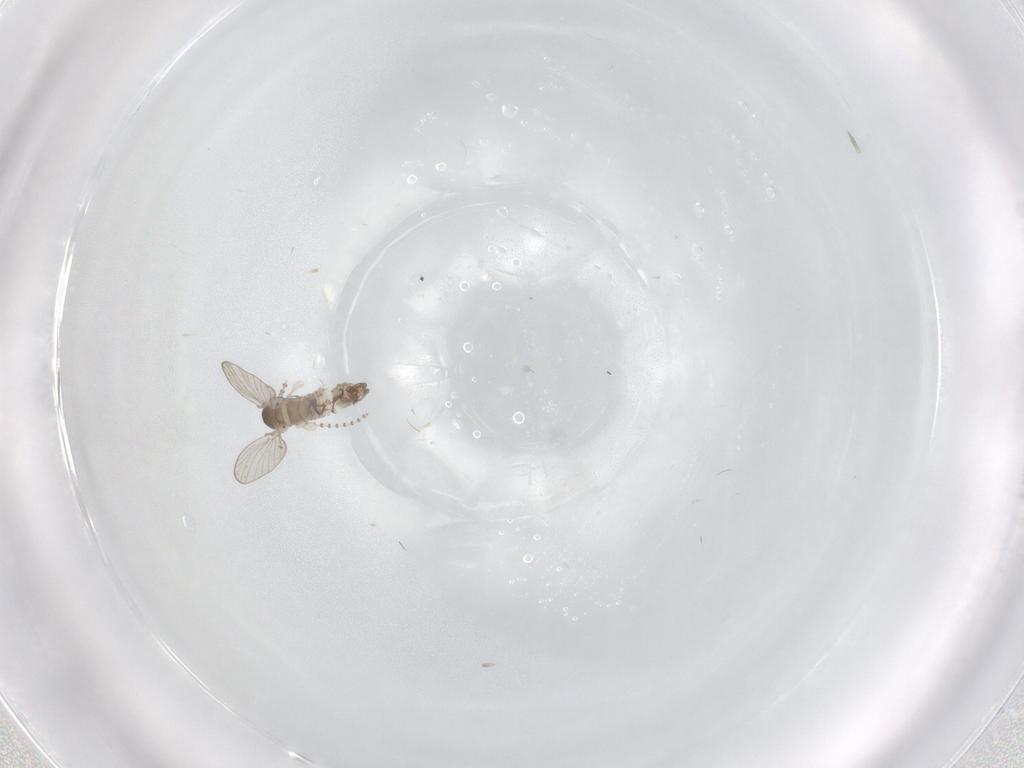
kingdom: Animalia
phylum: Arthropoda
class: Insecta
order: Diptera
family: Psychodidae
